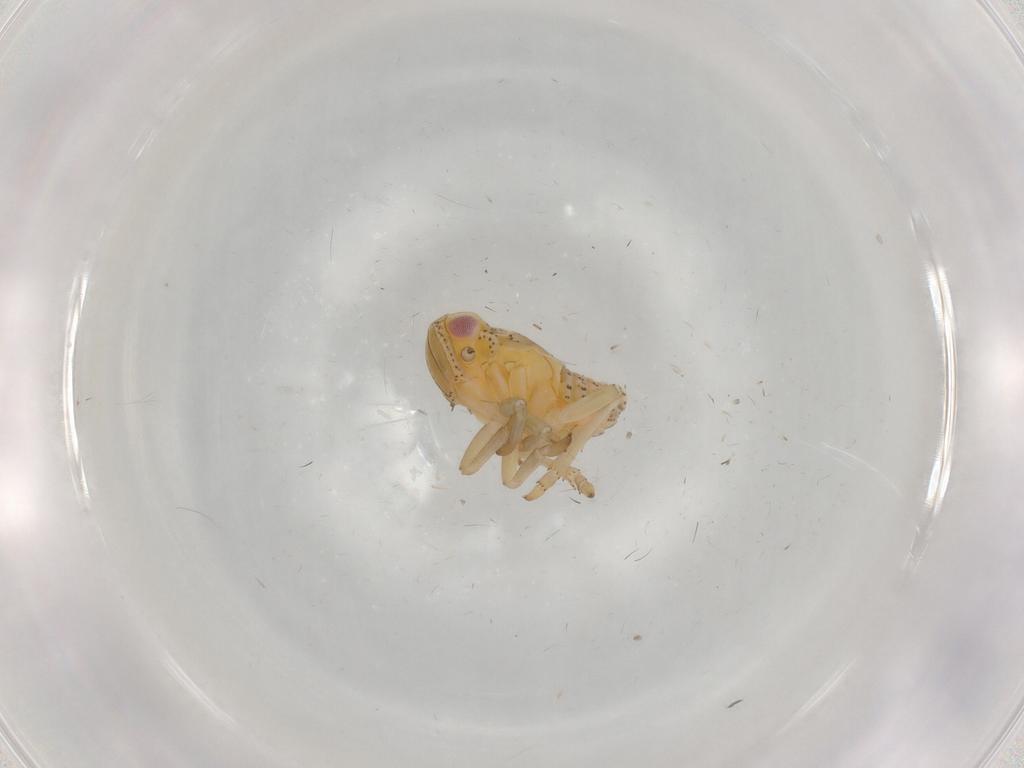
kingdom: Animalia
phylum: Arthropoda
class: Insecta
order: Hemiptera
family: Tropiduchidae
